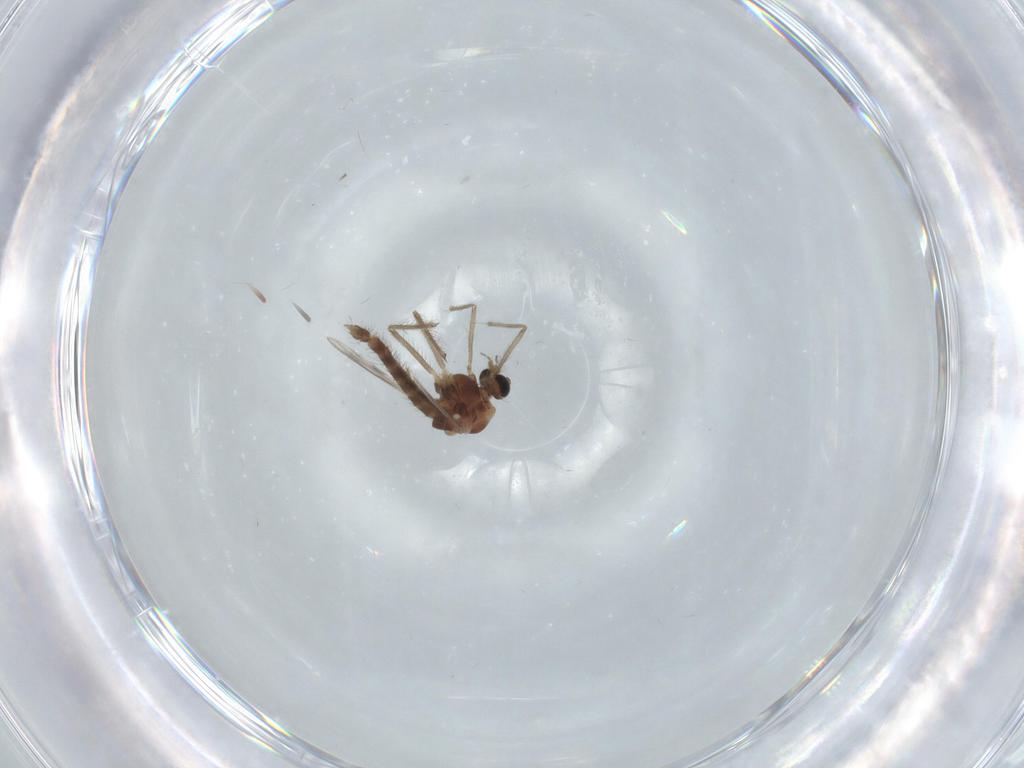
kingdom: Animalia
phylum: Arthropoda
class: Insecta
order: Diptera
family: Chironomidae
